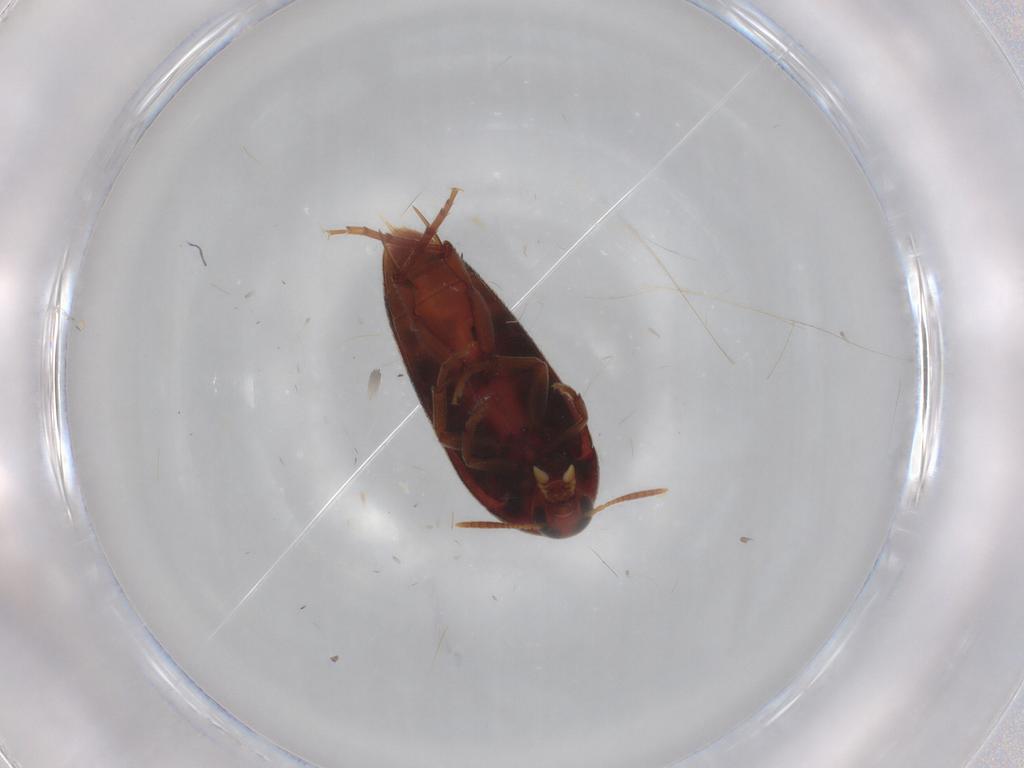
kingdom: Animalia
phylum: Arthropoda
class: Insecta
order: Coleoptera
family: Melandryidae
